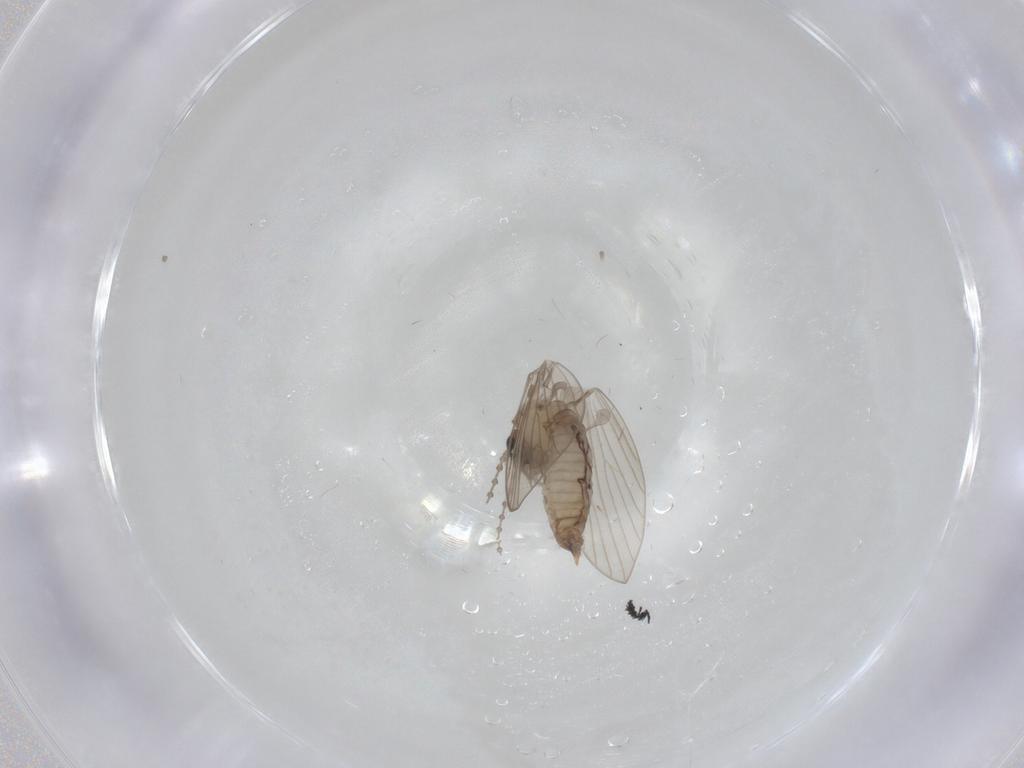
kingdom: Animalia
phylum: Arthropoda
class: Insecta
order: Diptera
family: Psychodidae
